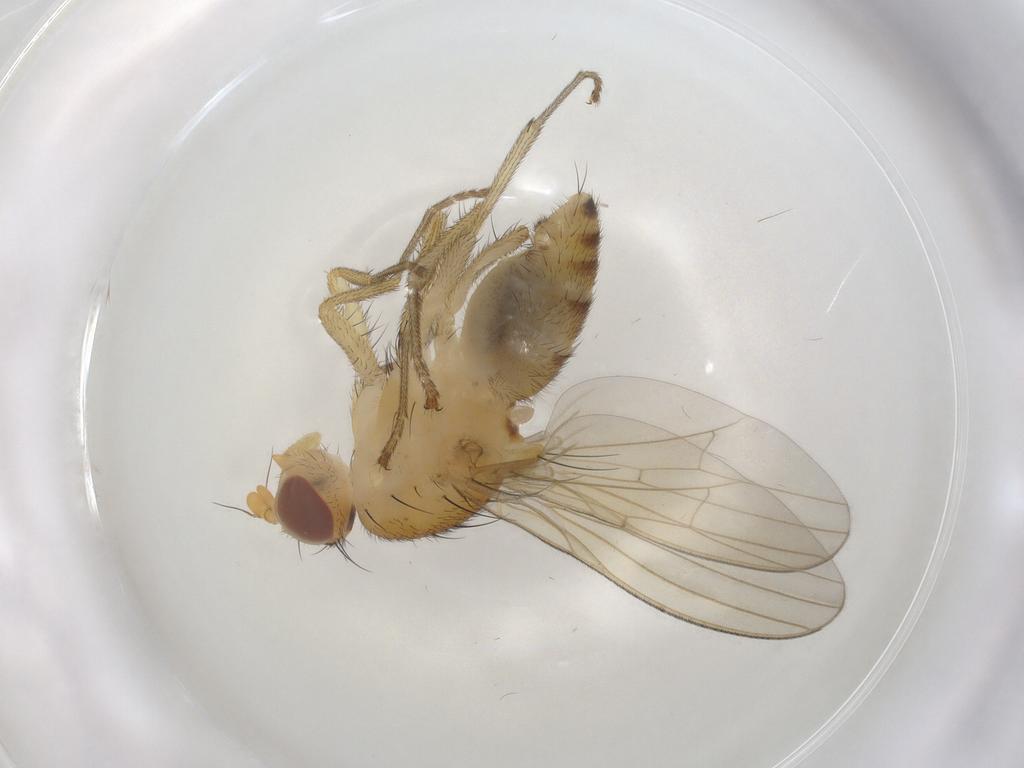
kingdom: Animalia
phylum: Arthropoda
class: Insecta
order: Diptera
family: Lauxaniidae
